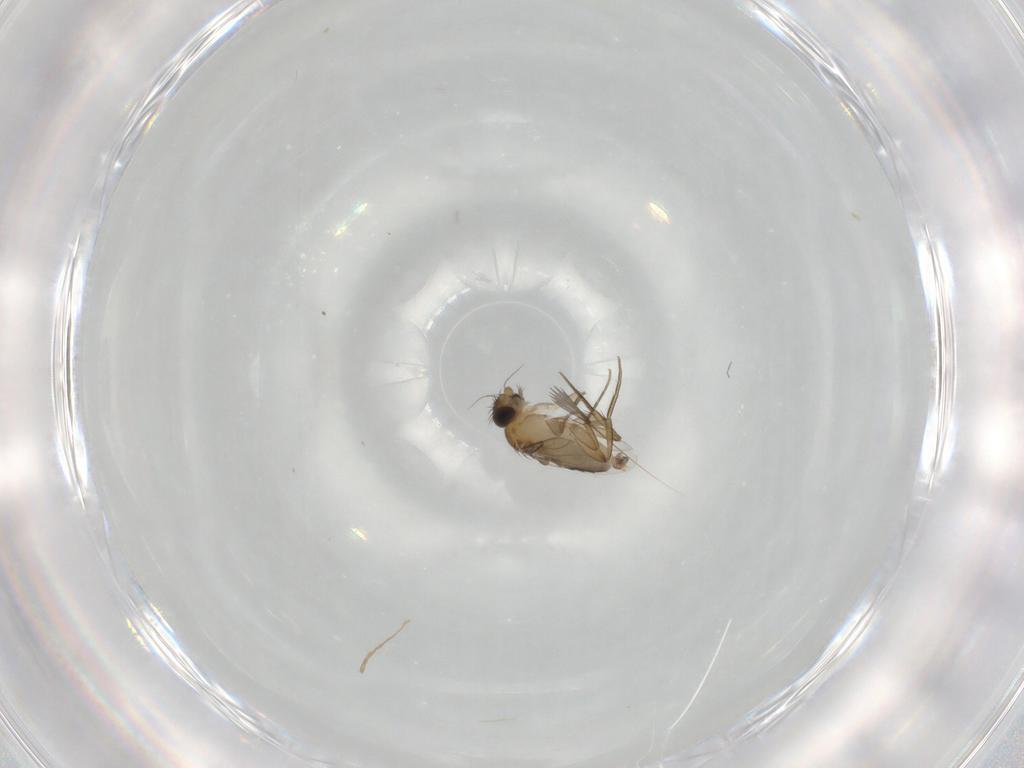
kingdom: Animalia
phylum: Arthropoda
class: Insecta
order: Diptera
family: Phoridae
